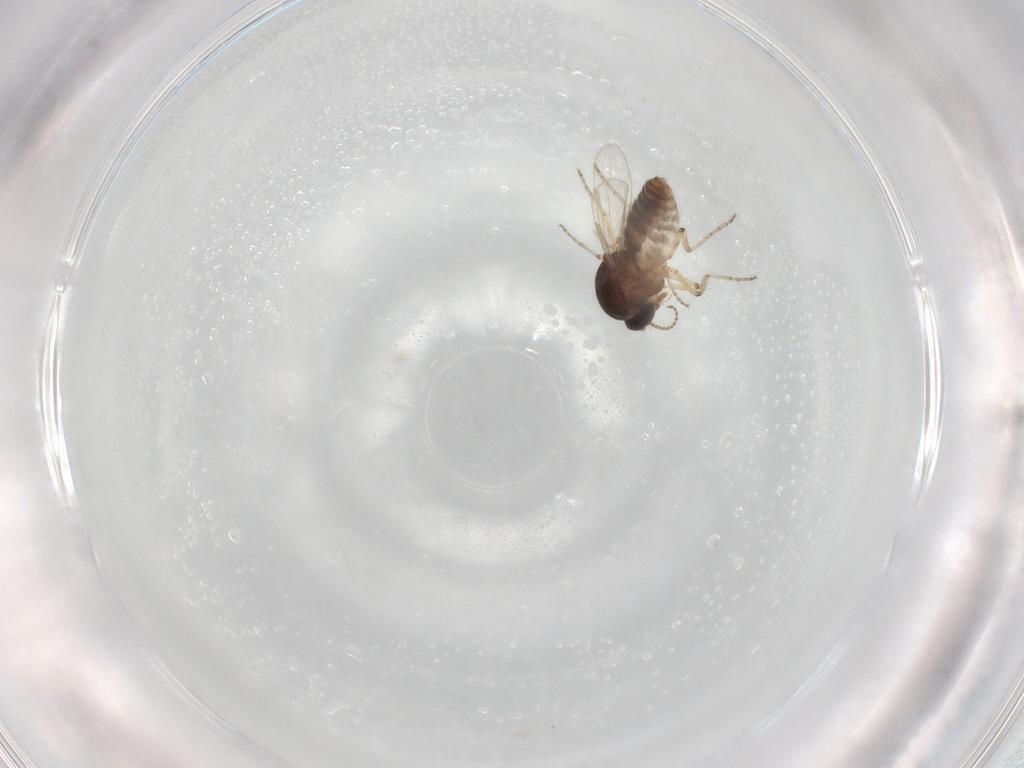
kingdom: Animalia
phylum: Arthropoda
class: Insecta
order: Diptera
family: Ceratopogonidae
